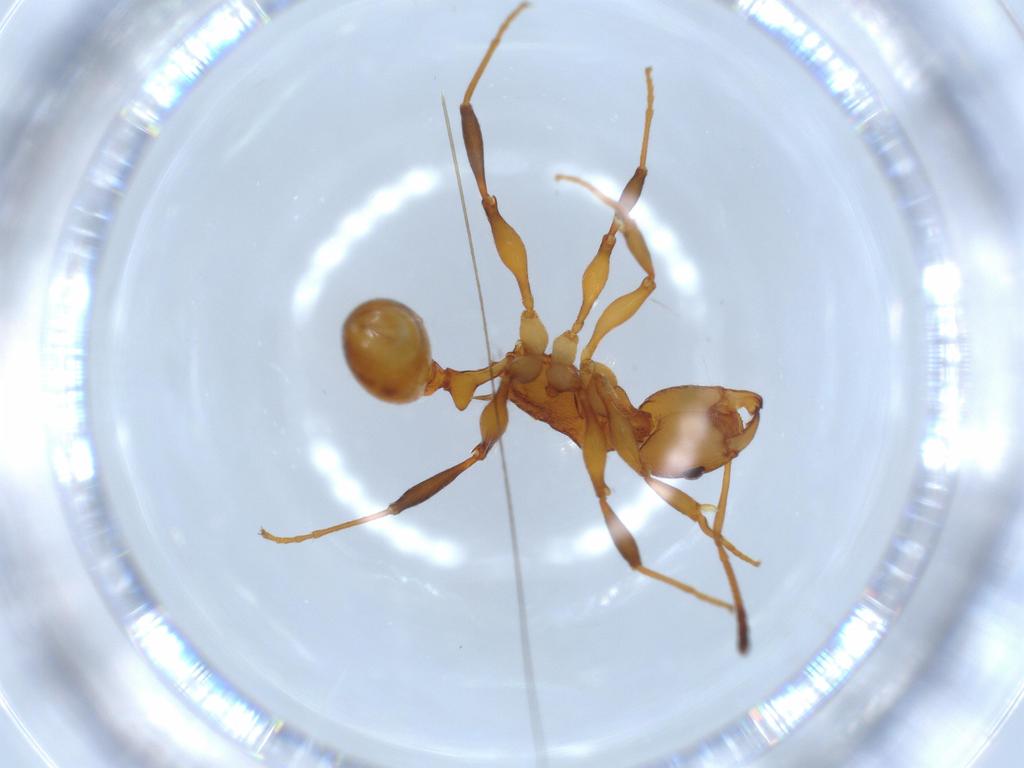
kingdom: Animalia
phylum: Arthropoda
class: Insecta
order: Hymenoptera
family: Formicidae
